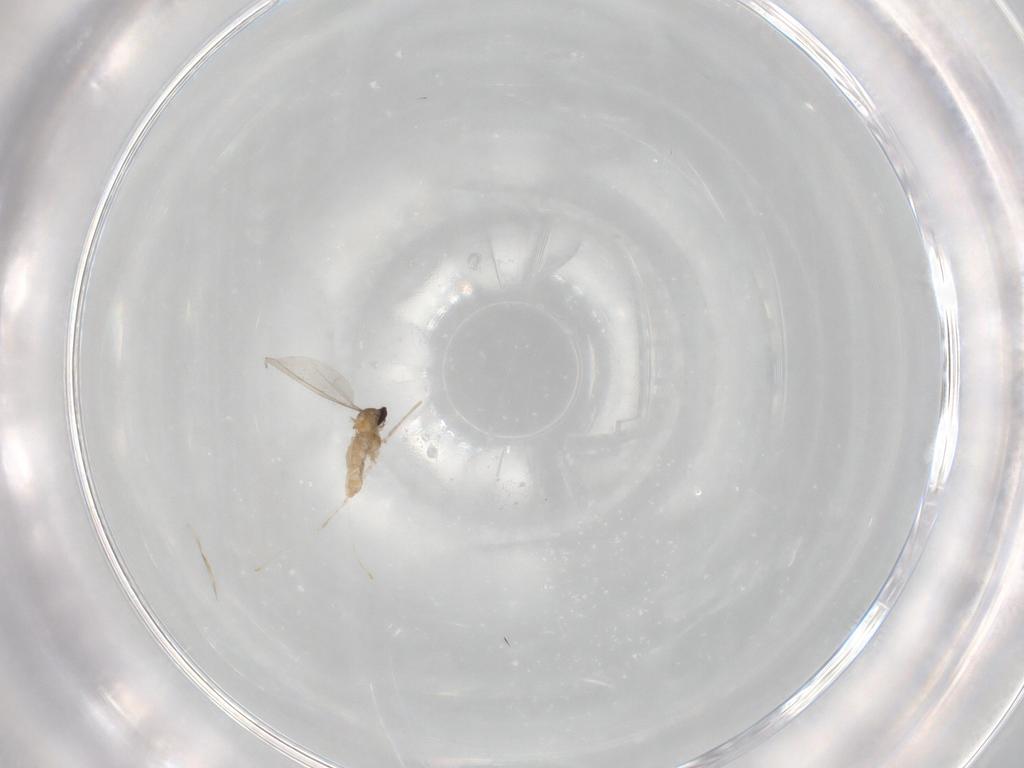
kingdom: Animalia
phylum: Arthropoda
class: Insecta
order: Diptera
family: Cecidomyiidae
